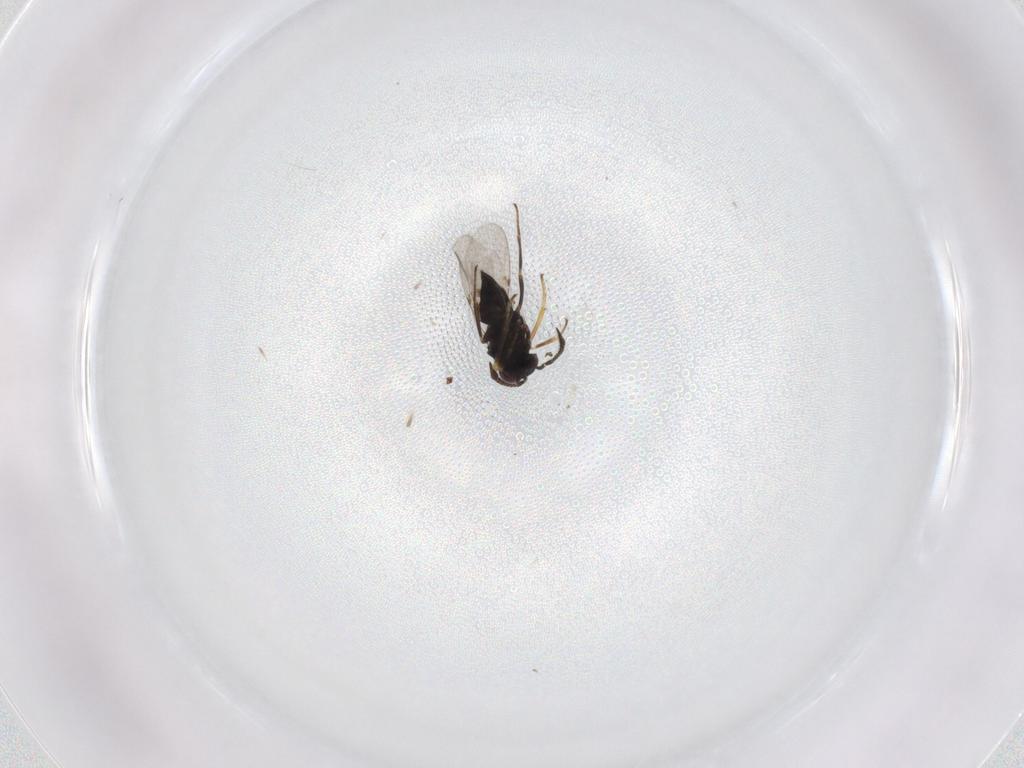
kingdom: Animalia
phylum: Arthropoda
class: Insecta
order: Hymenoptera
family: Encyrtidae
